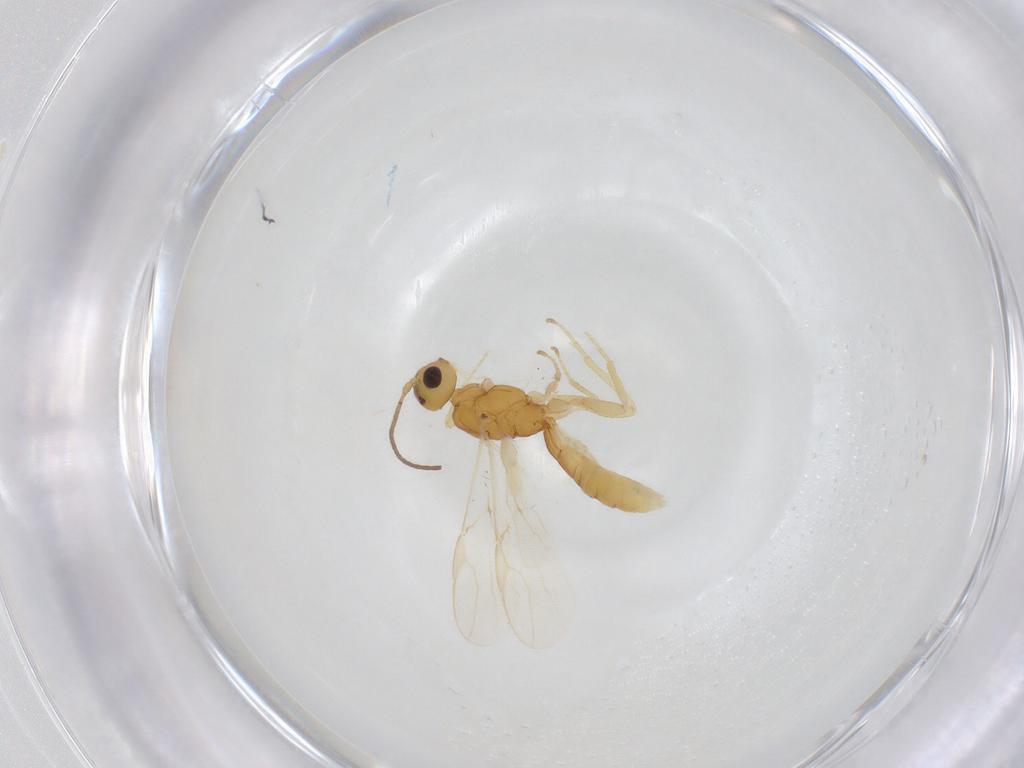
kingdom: Animalia
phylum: Arthropoda
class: Insecta
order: Hymenoptera
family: Braconidae
